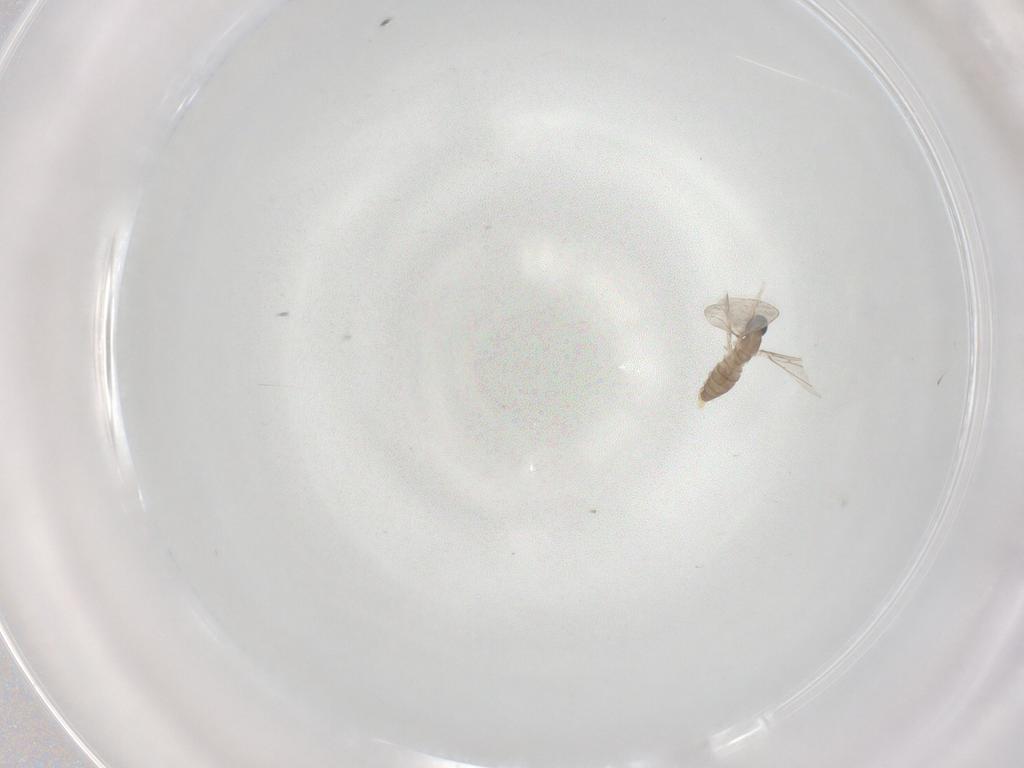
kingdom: Animalia
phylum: Arthropoda
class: Insecta
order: Diptera
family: Cecidomyiidae
